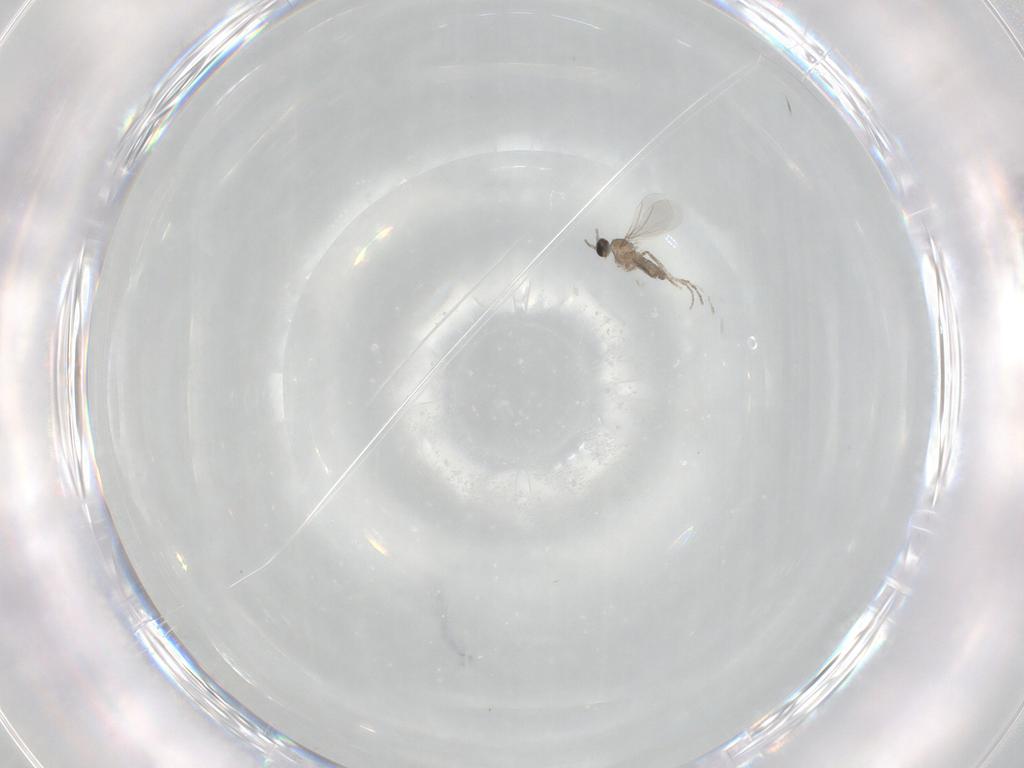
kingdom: Animalia
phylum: Arthropoda
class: Insecta
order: Diptera
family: Cecidomyiidae
